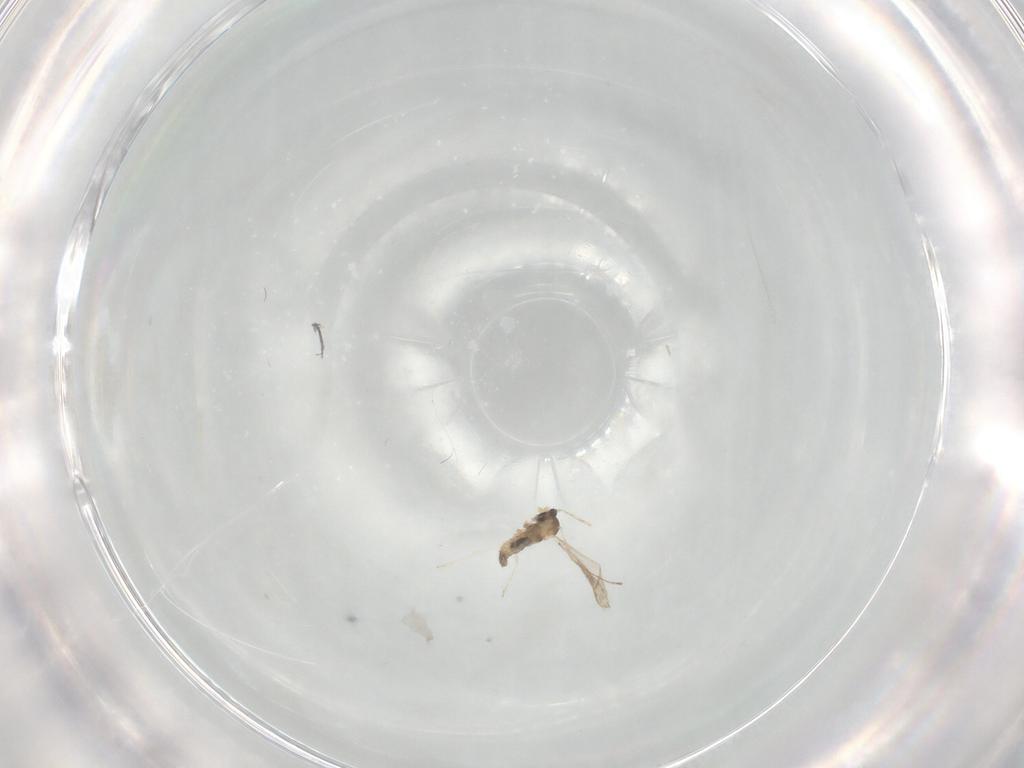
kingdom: Animalia
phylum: Arthropoda
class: Insecta
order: Diptera
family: Cecidomyiidae
